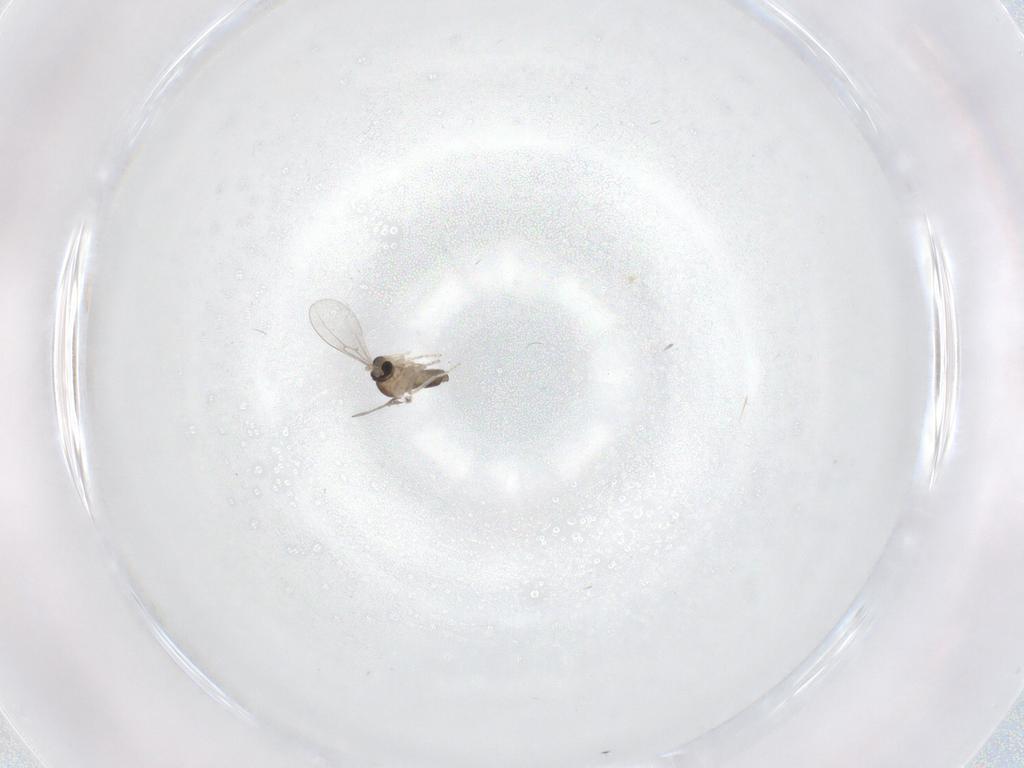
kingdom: Animalia
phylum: Arthropoda
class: Insecta
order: Diptera
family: Cecidomyiidae
